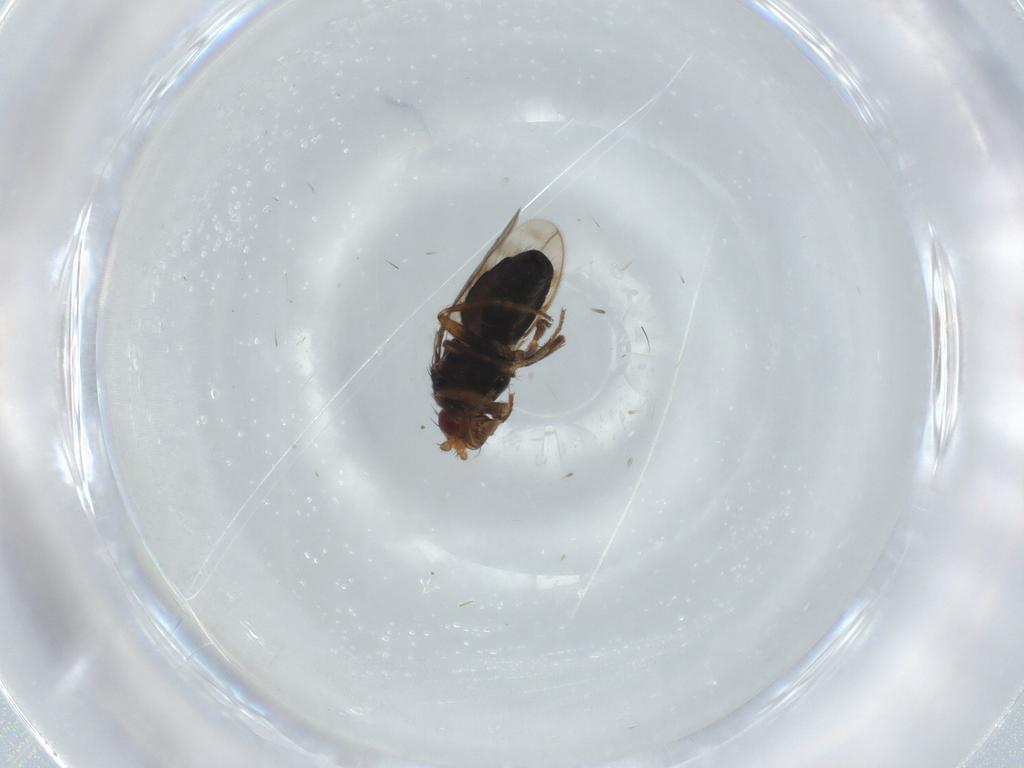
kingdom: Animalia
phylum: Arthropoda
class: Insecta
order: Diptera
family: Sphaeroceridae
